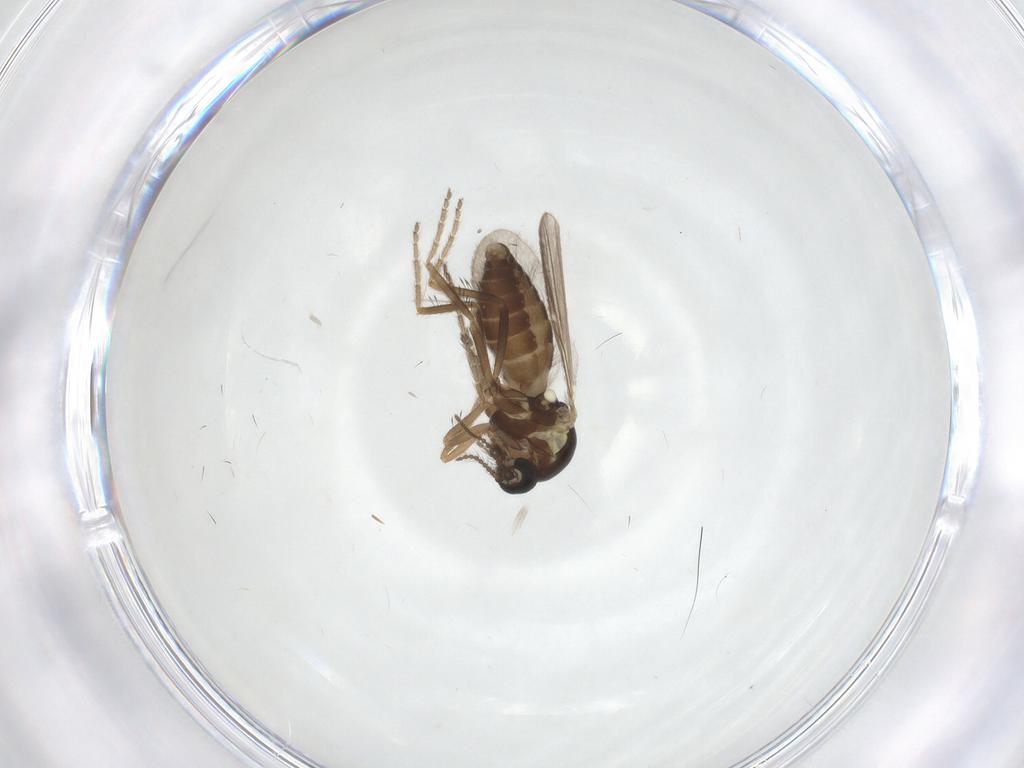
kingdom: Animalia
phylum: Arthropoda
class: Insecta
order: Diptera
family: Ceratopogonidae
